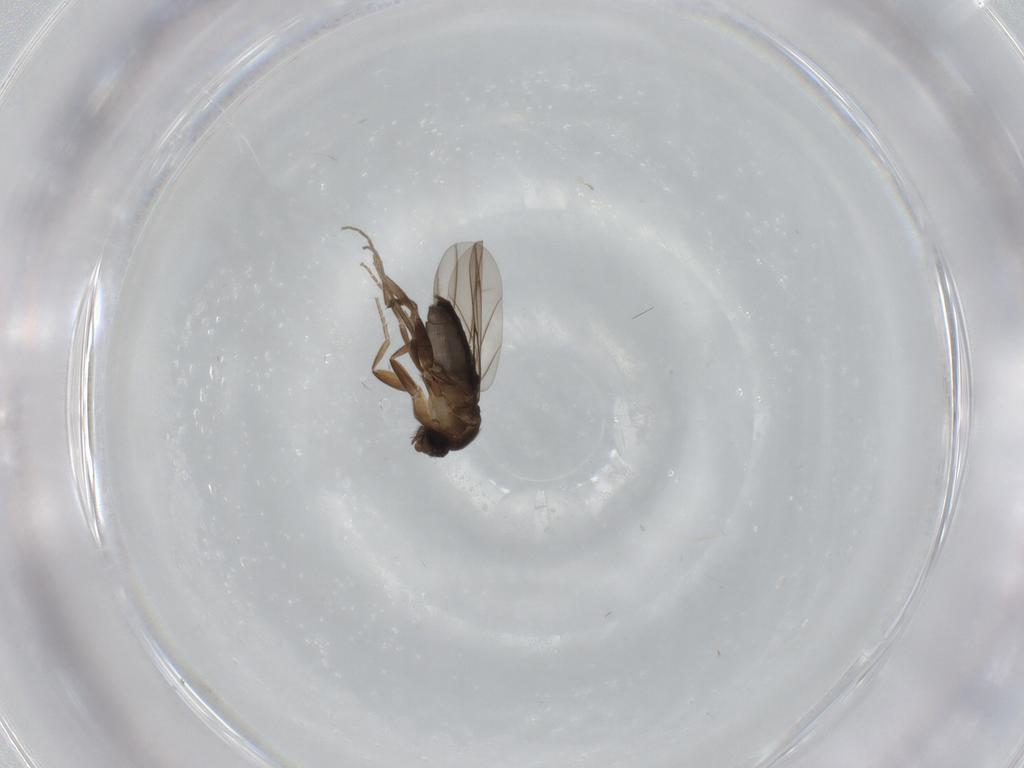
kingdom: Animalia
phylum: Arthropoda
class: Insecta
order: Diptera
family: Phoridae
